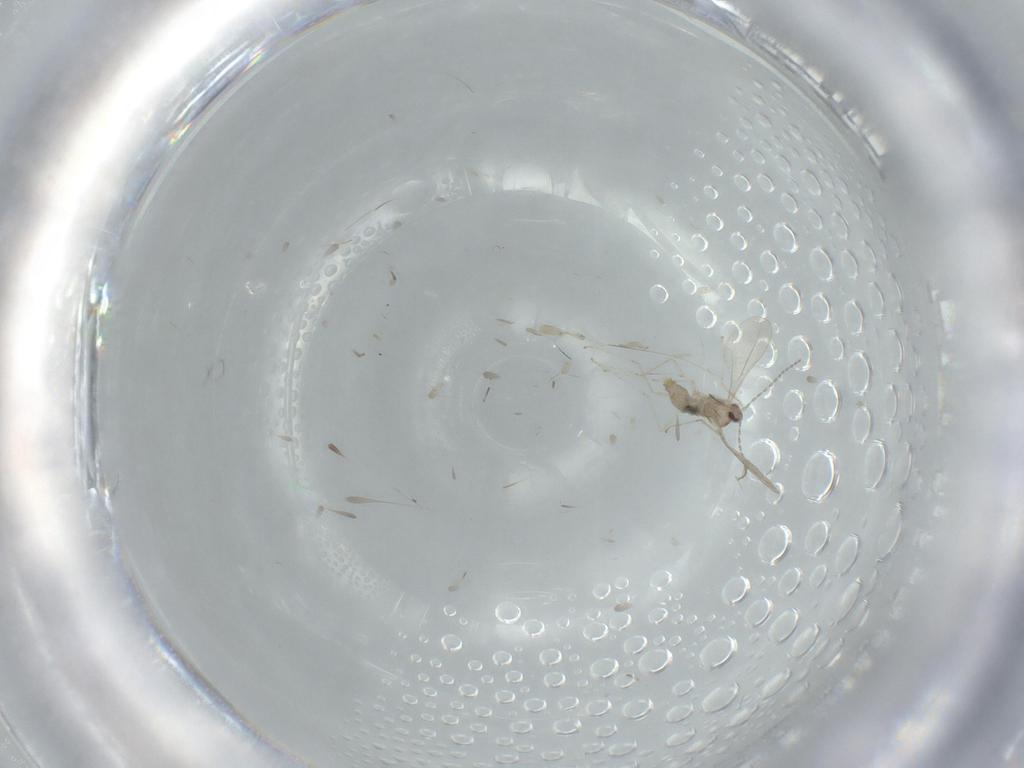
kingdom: Animalia
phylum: Arthropoda
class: Insecta
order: Diptera
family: Cecidomyiidae
